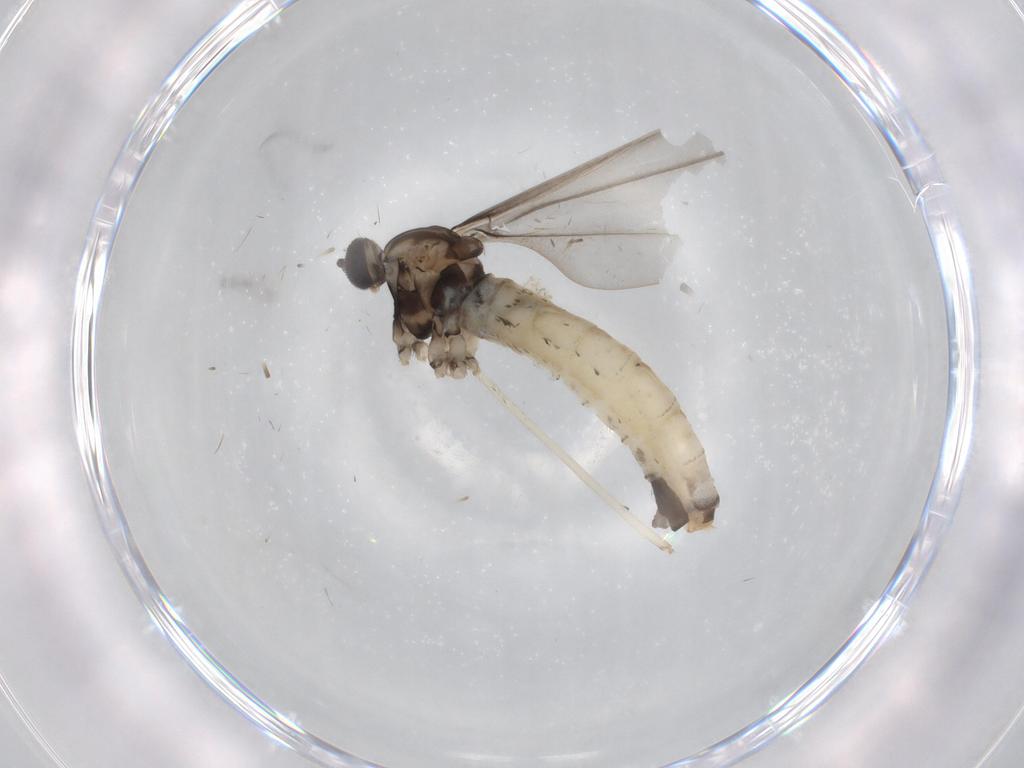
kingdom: Animalia
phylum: Arthropoda
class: Insecta
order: Diptera
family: Cecidomyiidae
